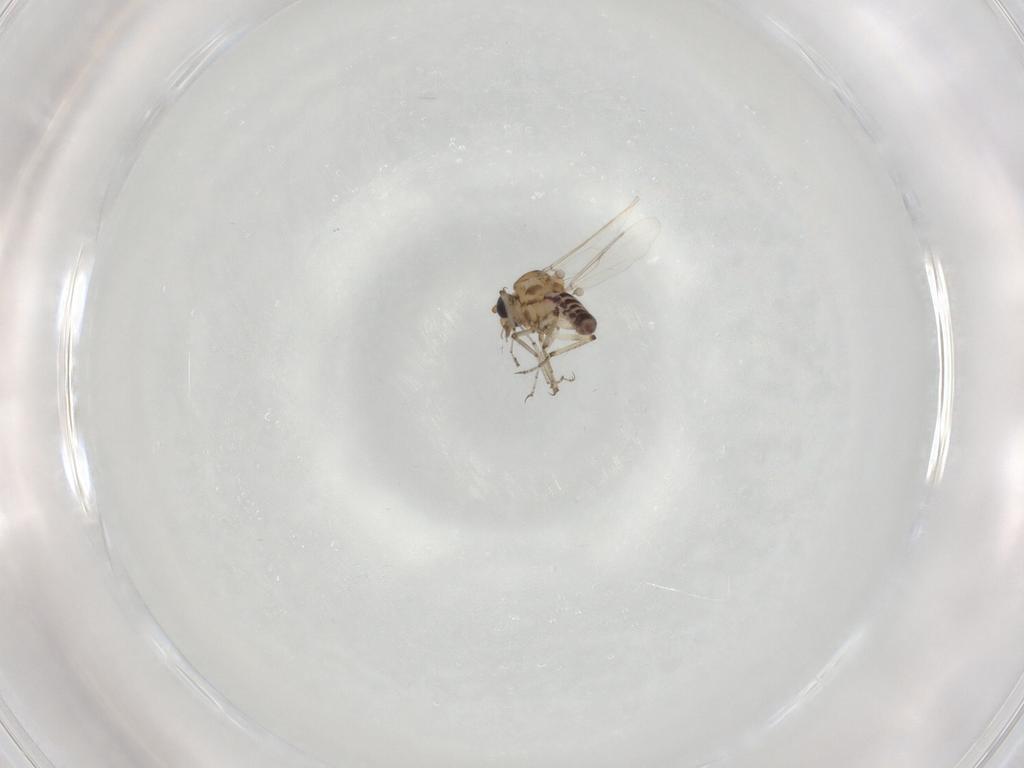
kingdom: Animalia
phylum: Arthropoda
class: Insecta
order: Diptera
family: Ceratopogonidae
